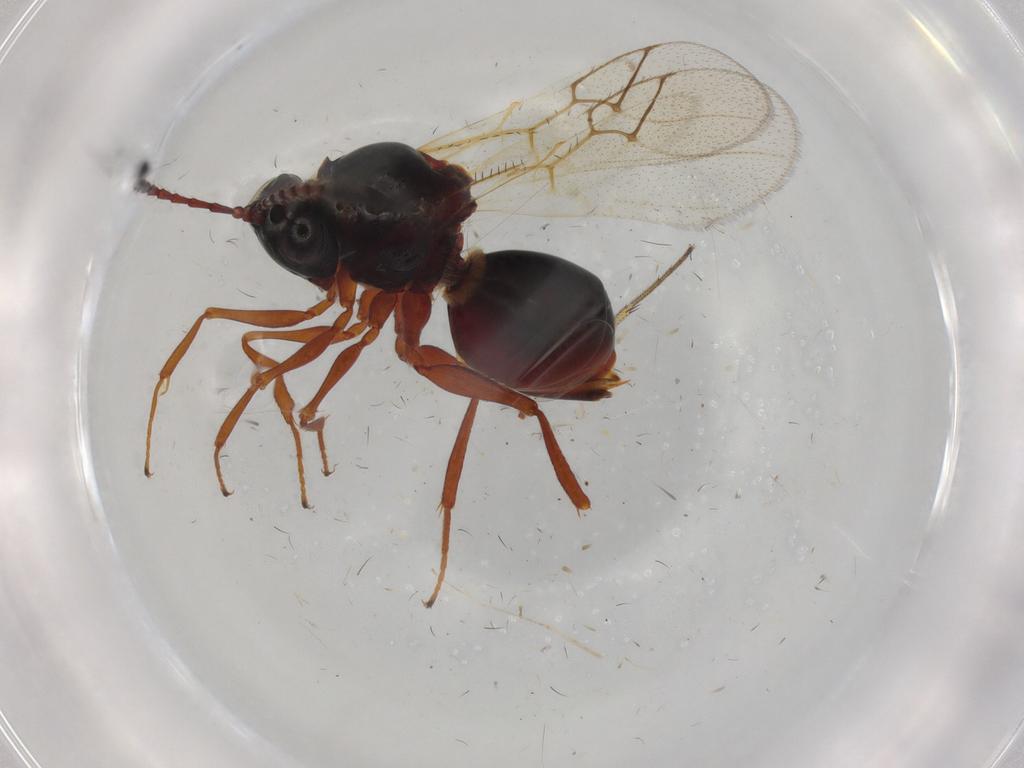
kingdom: Animalia
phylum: Arthropoda
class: Insecta
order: Hymenoptera
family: Figitidae
